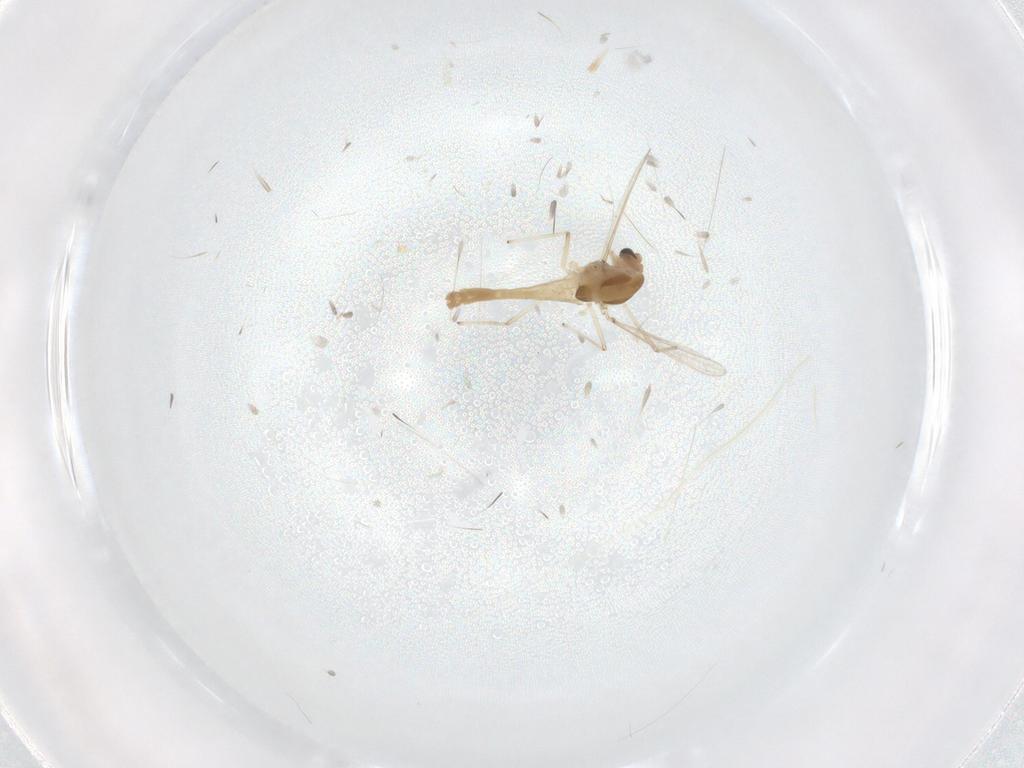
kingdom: Animalia
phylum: Arthropoda
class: Insecta
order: Diptera
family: Chironomidae
